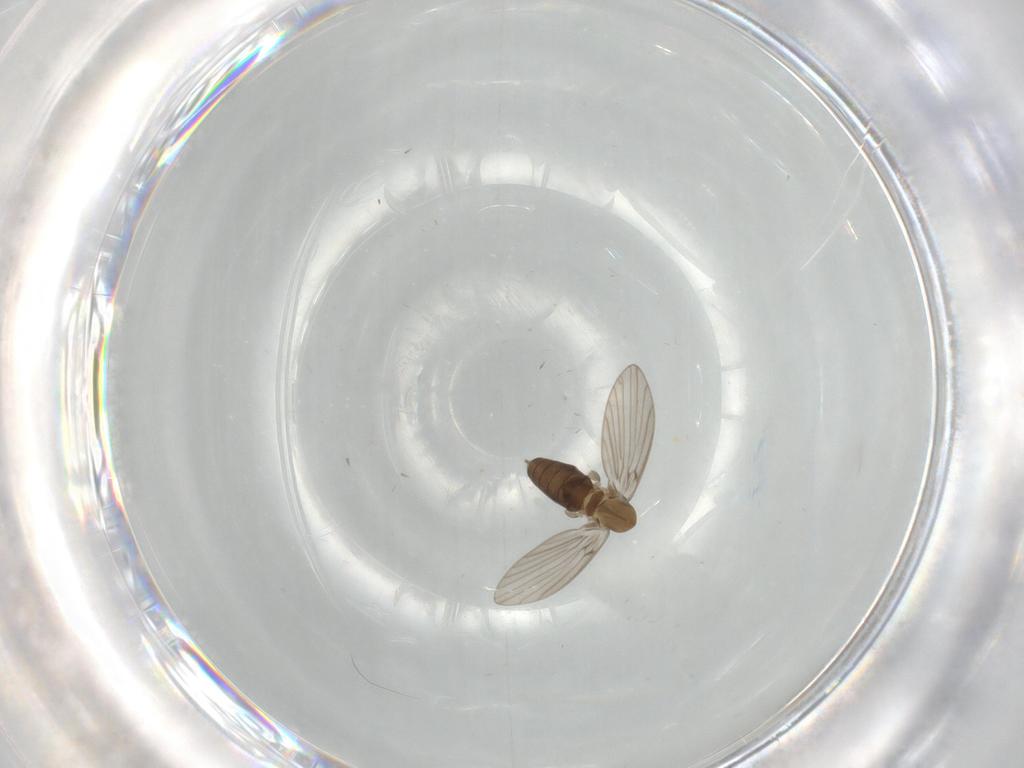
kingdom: Animalia
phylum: Arthropoda
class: Insecta
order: Diptera
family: Psychodidae
